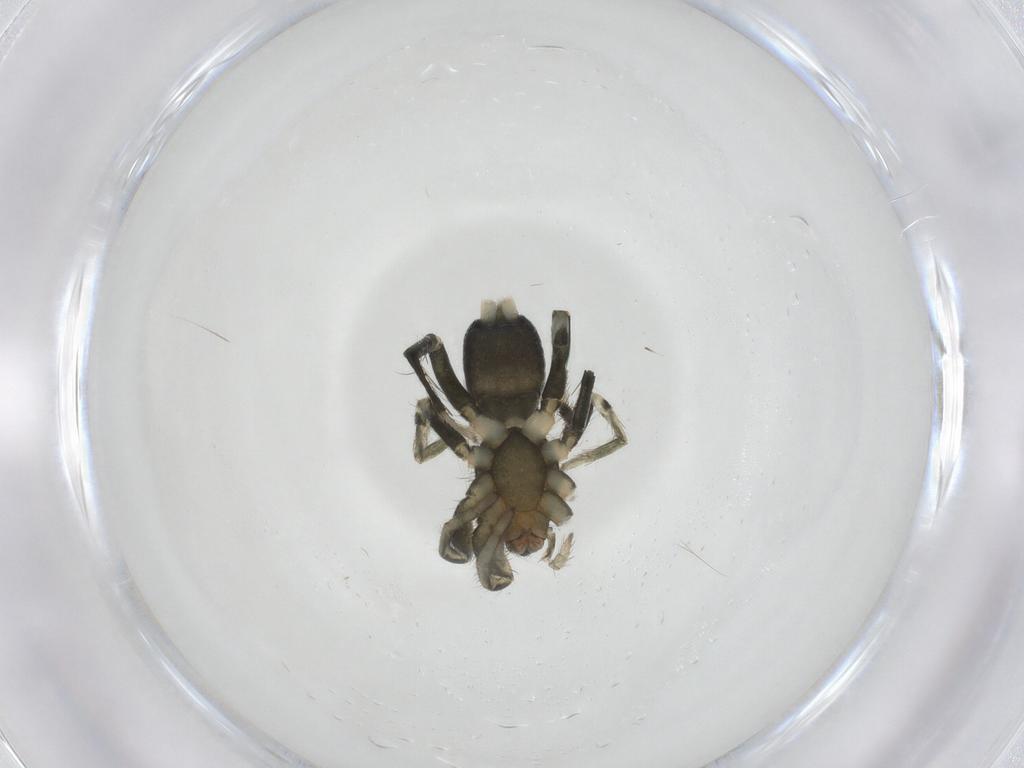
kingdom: Animalia
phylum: Arthropoda
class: Arachnida
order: Araneae
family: Gnaphosidae
